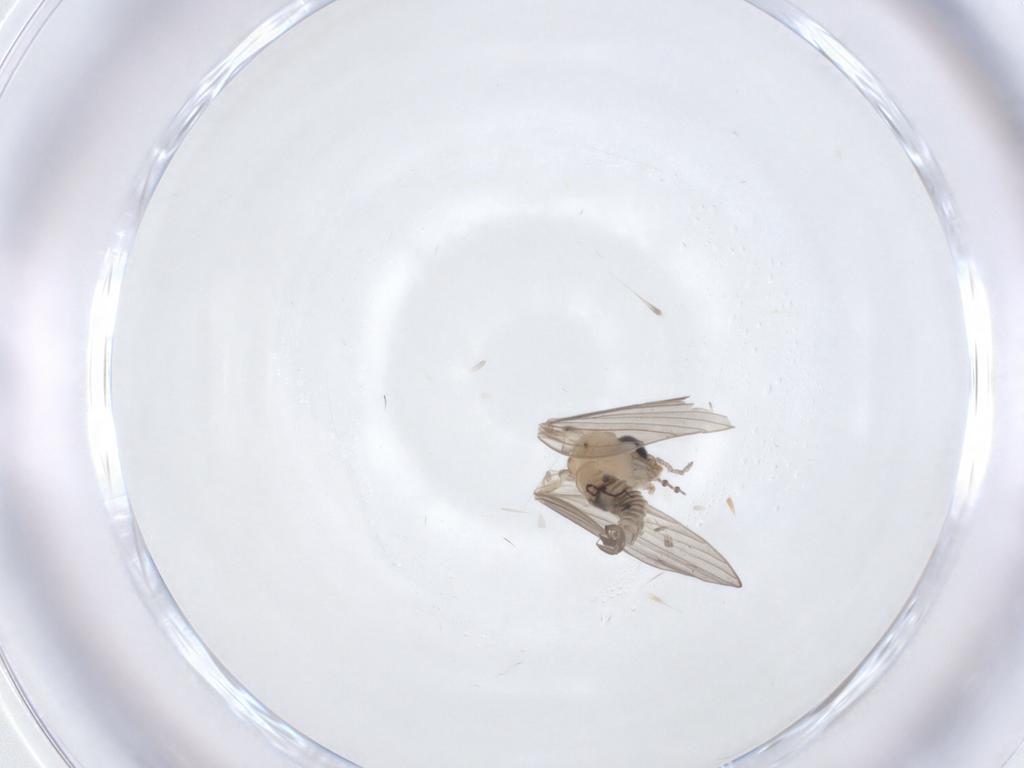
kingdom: Animalia
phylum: Arthropoda
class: Insecta
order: Diptera
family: Psychodidae
